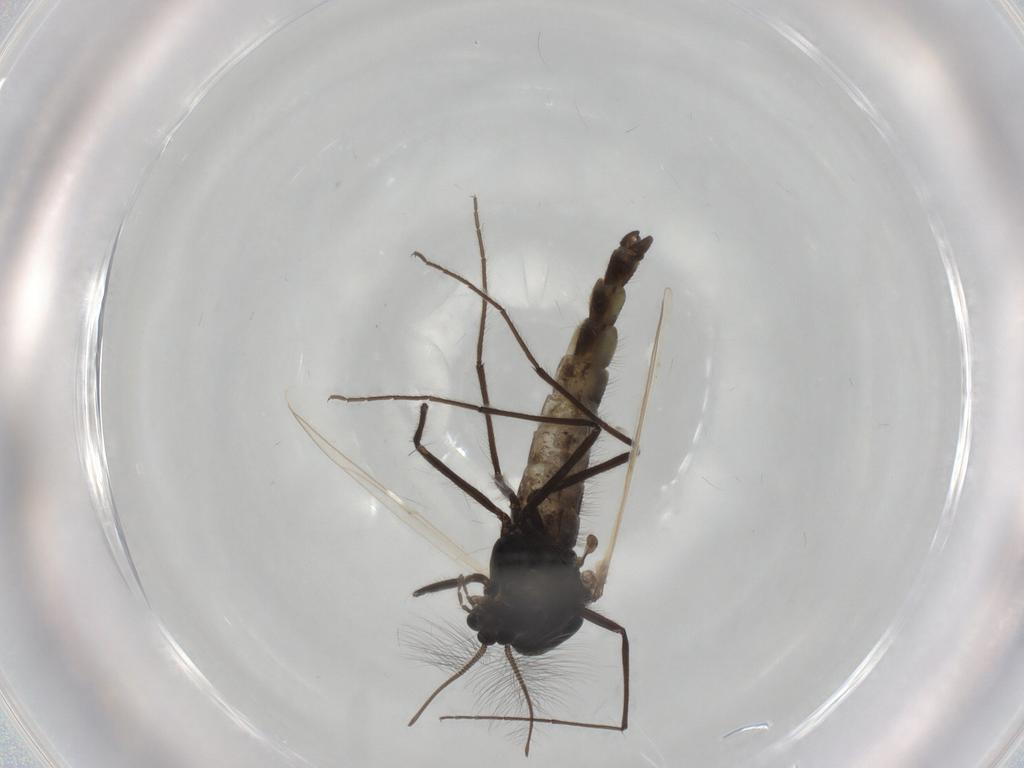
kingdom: Animalia
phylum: Arthropoda
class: Insecta
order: Diptera
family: Chironomidae
